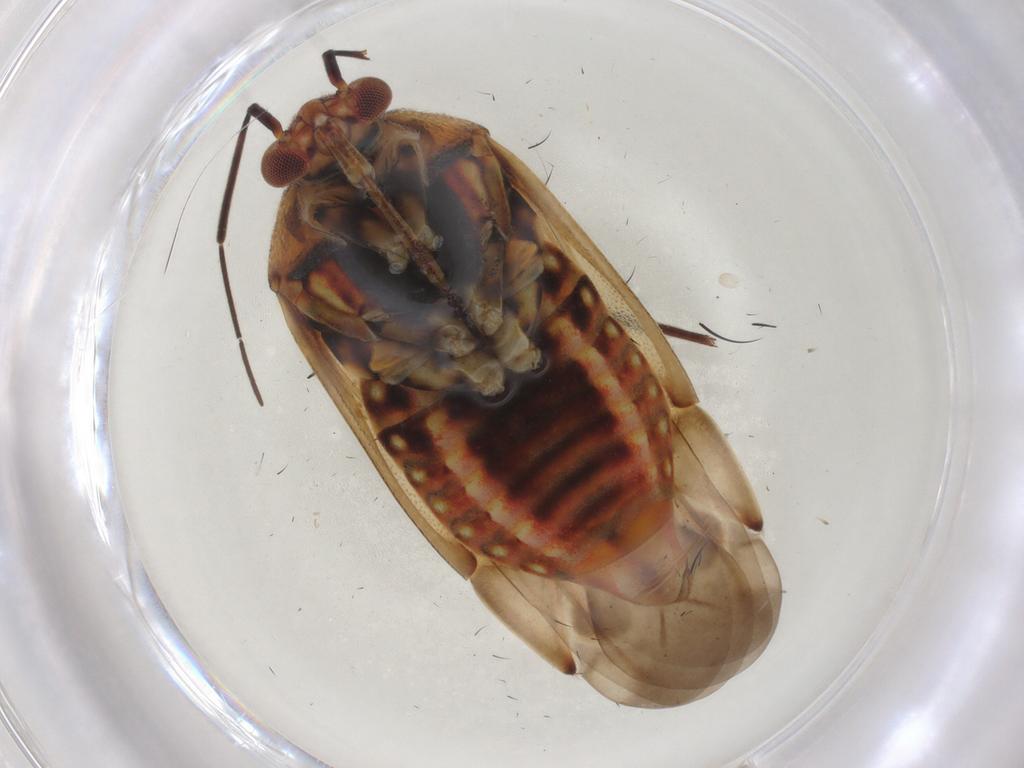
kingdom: Animalia
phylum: Arthropoda
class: Insecta
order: Hemiptera
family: Miridae
